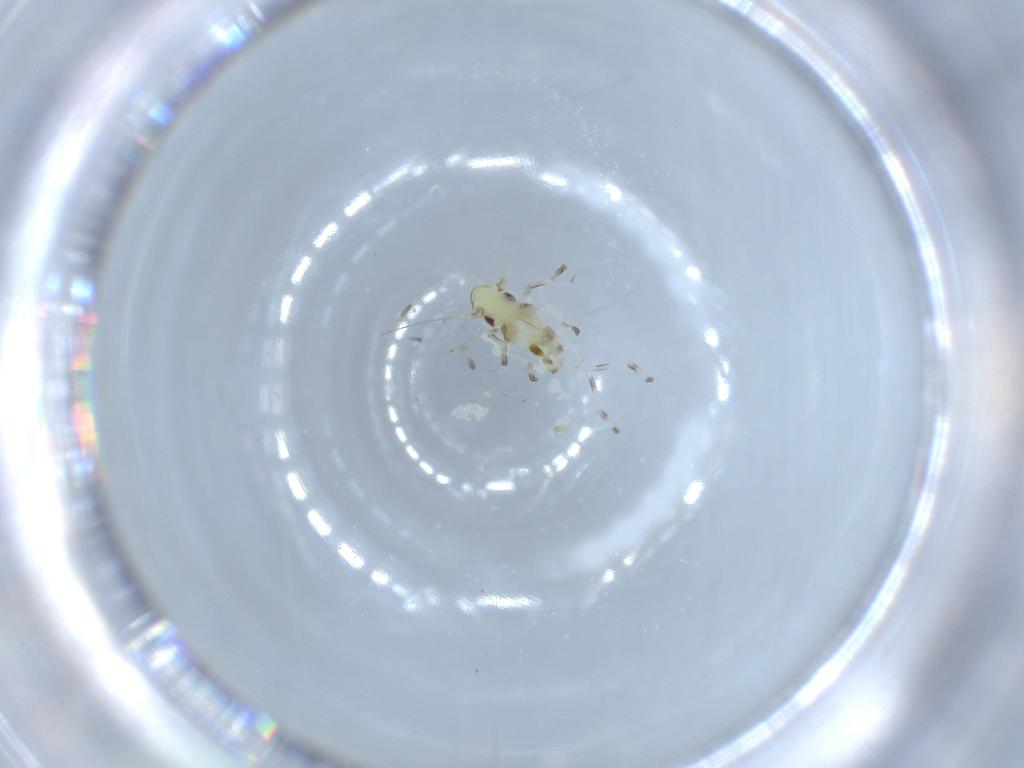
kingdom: Animalia
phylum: Arthropoda
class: Insecta
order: Hemiptera
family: Cicadellidae
